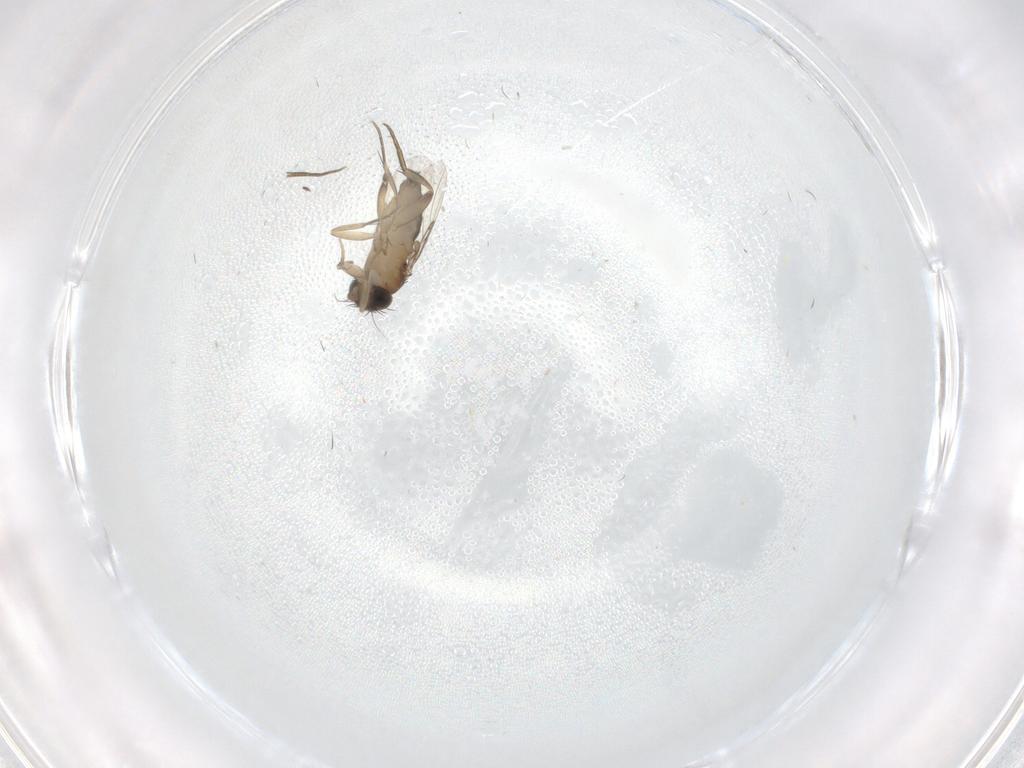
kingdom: Animalia
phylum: Arthropoda
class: Insecta
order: Diptera
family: Phoridae
